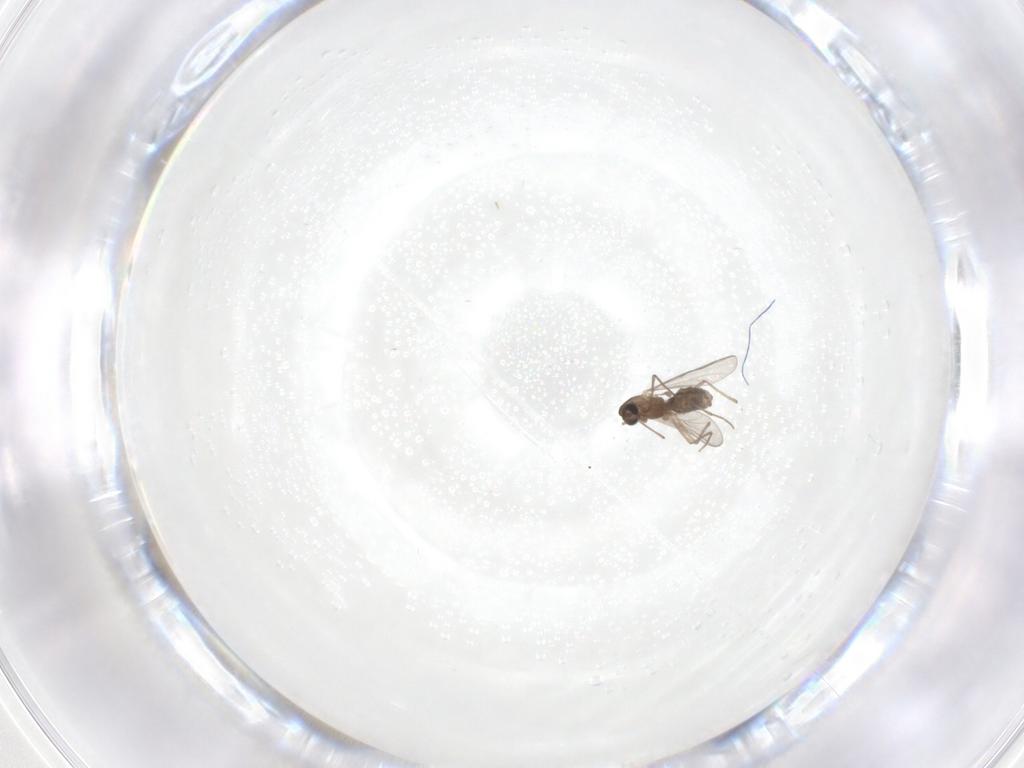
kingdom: Animalia
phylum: Arthropoda
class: Insecta
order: Diptera
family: Chironomidae
